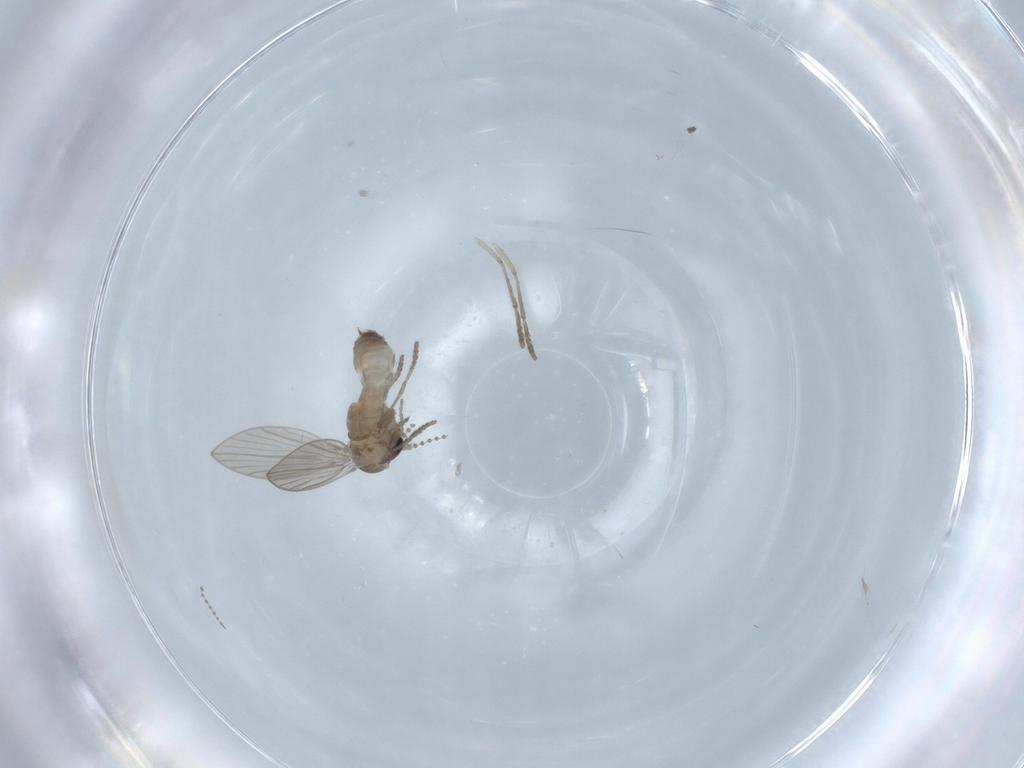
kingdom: Animalia
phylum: Arthropoda
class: Insecta
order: Diptera
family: Psychodidae
